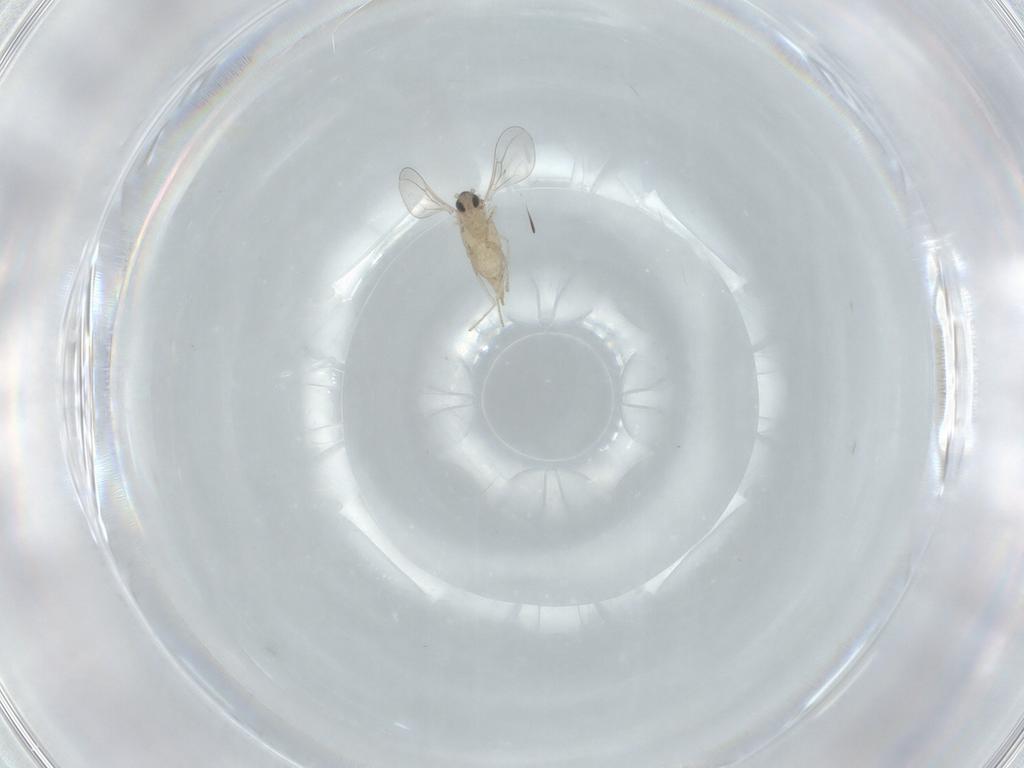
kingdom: Animalia
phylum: Arthropoda
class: Insecta
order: Diptera
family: Cecidomyiidae
